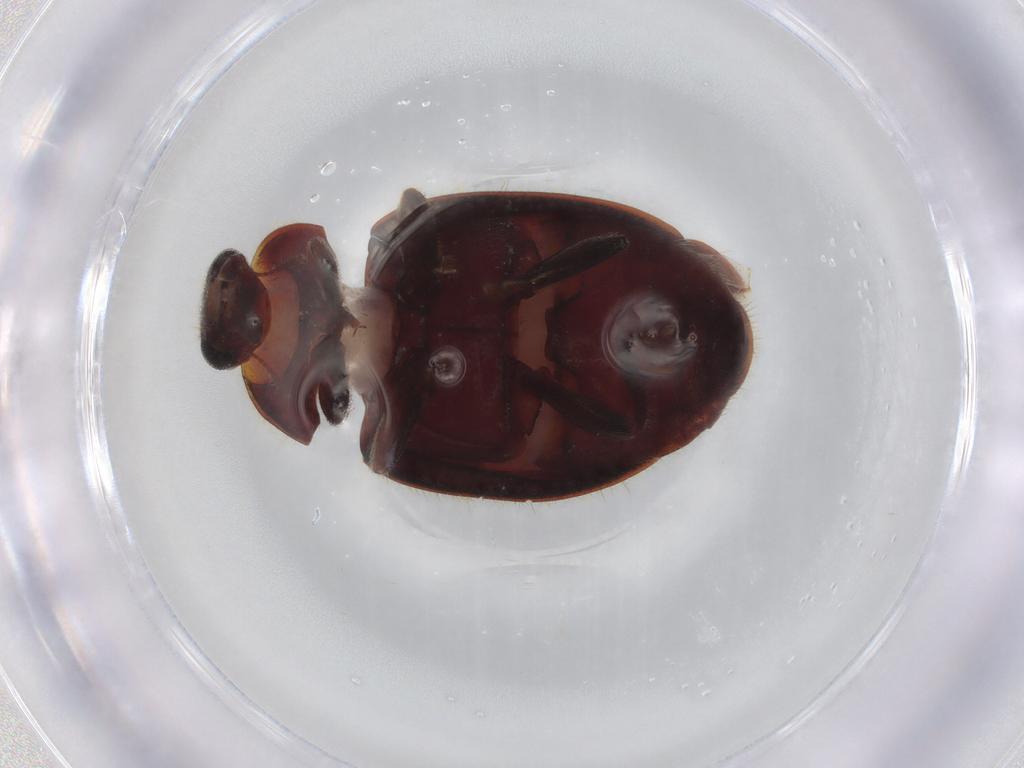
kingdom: Animalia
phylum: Arthropoda
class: Insecta
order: Coleoptera
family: Coccinellidae
